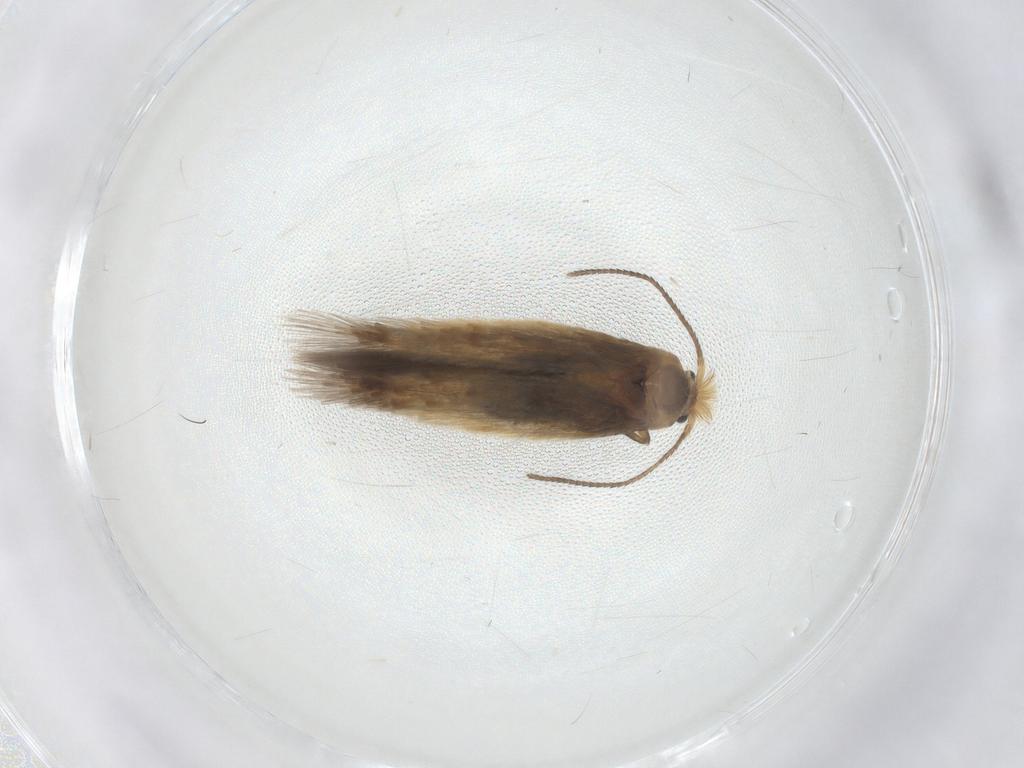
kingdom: Animalia
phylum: Arthropoda
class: Insecta
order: Lepidoptera
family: Nepticulidae
